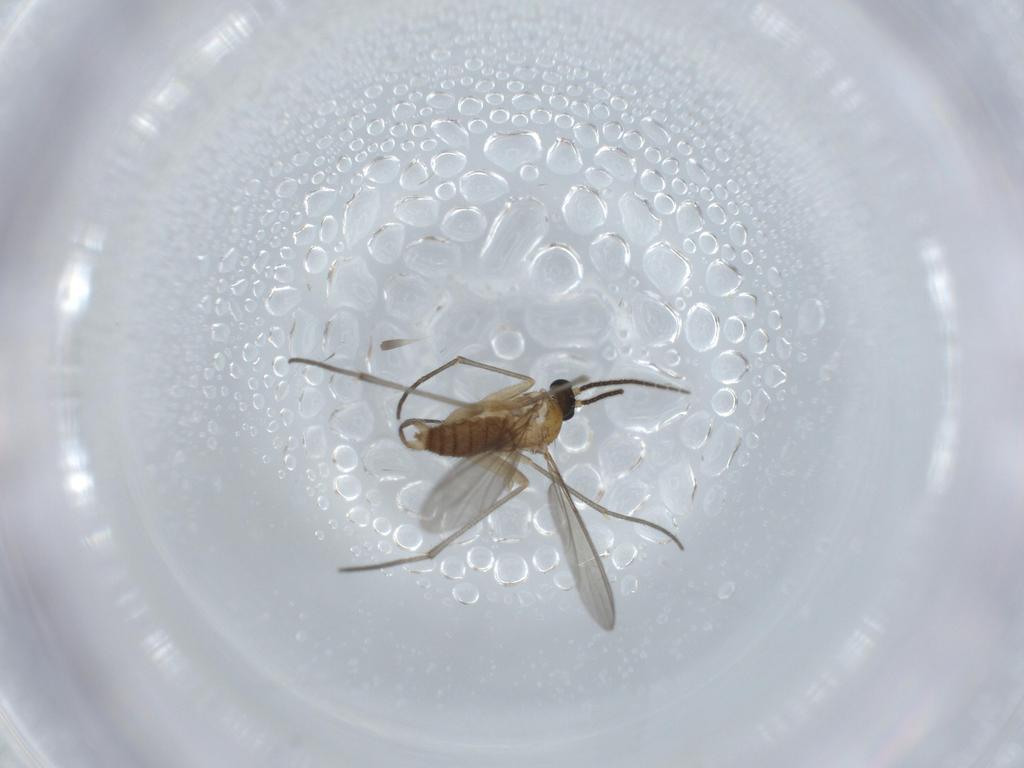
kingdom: Animalia
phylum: Arthropoda
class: Insecta
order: Diptera
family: Sciaridae
